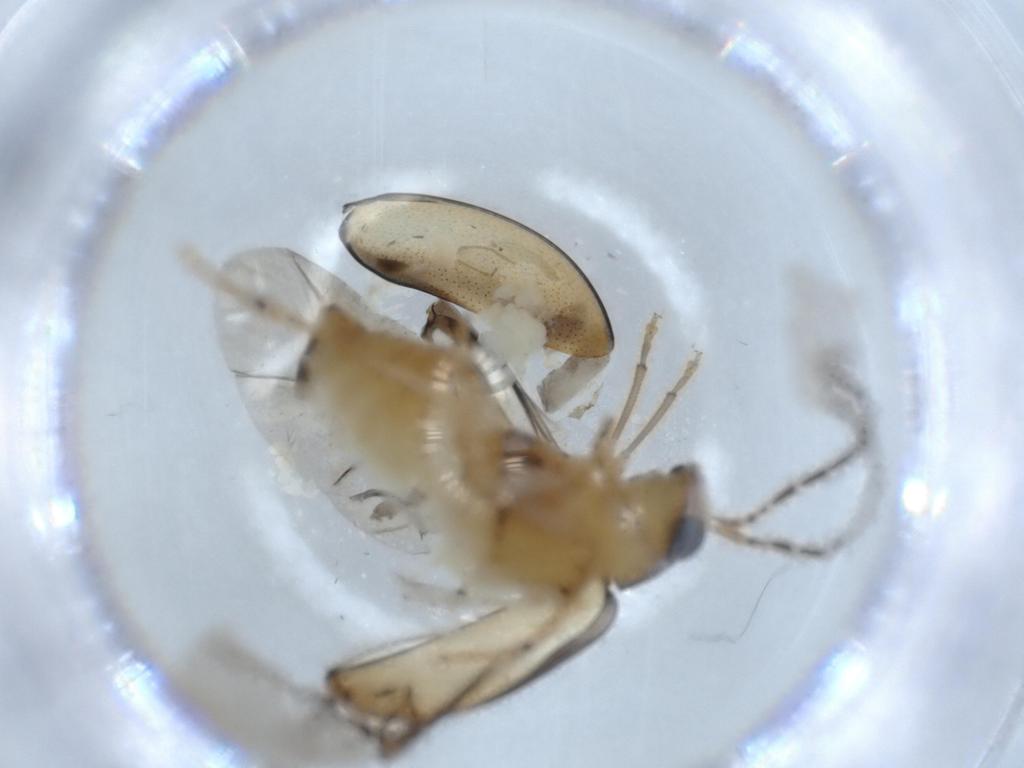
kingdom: Animalia
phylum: Arthropoda
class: Insecta
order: Coleoptera
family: Chrysomelidae
